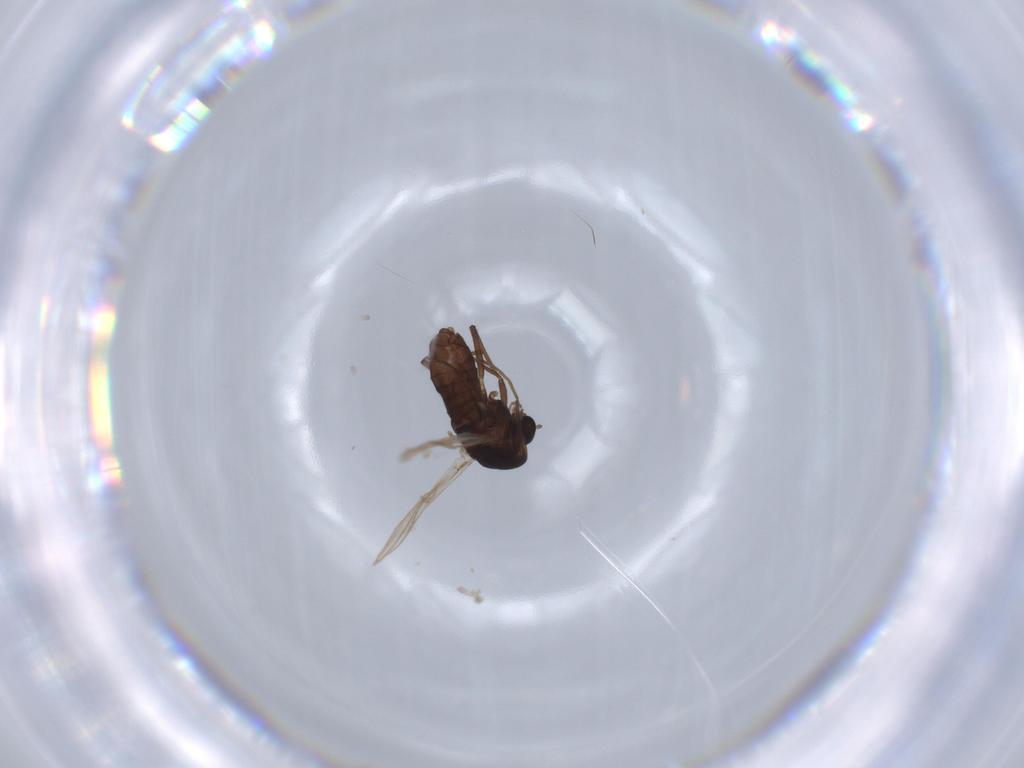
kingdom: Animalia
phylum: Arthropoda
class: Insecta
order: Diptera
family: Chironomidae
